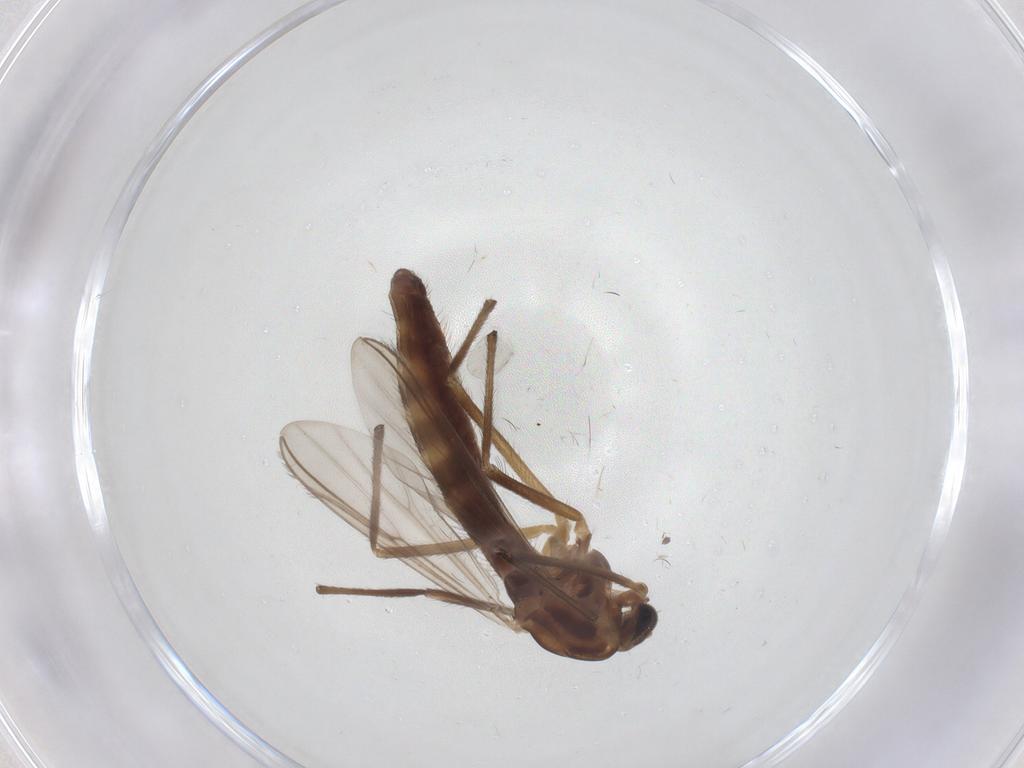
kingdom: Animalia
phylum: Arthropoda
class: Insecta
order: Diptera
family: Chironomidae
